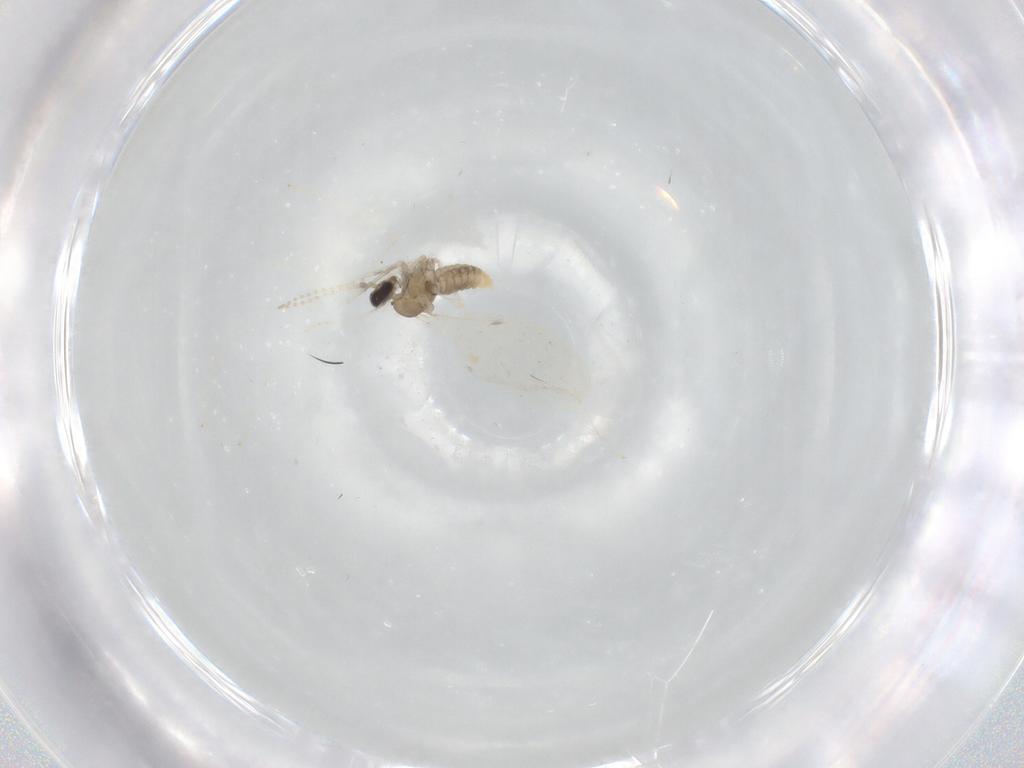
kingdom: Animalia
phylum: Arthropoda
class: Insecta
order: Diptera
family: Cecidomyiidae
